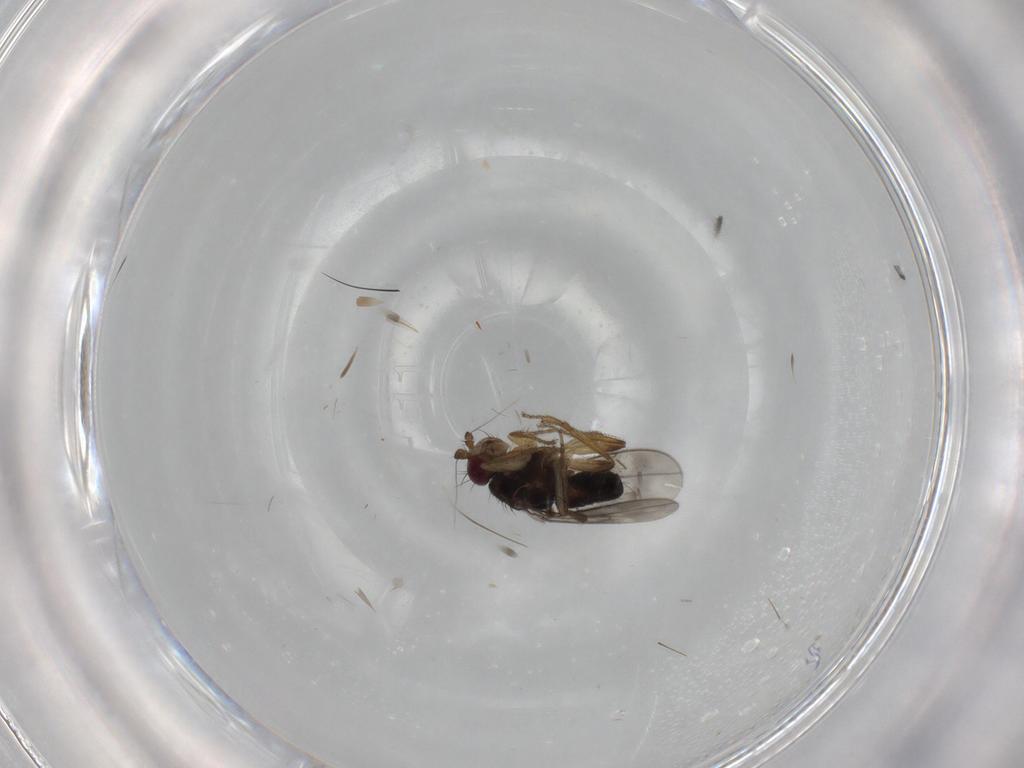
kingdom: Animalia
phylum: Arthropoda
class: Insecta
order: Diptera
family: Sphaeroceridae
